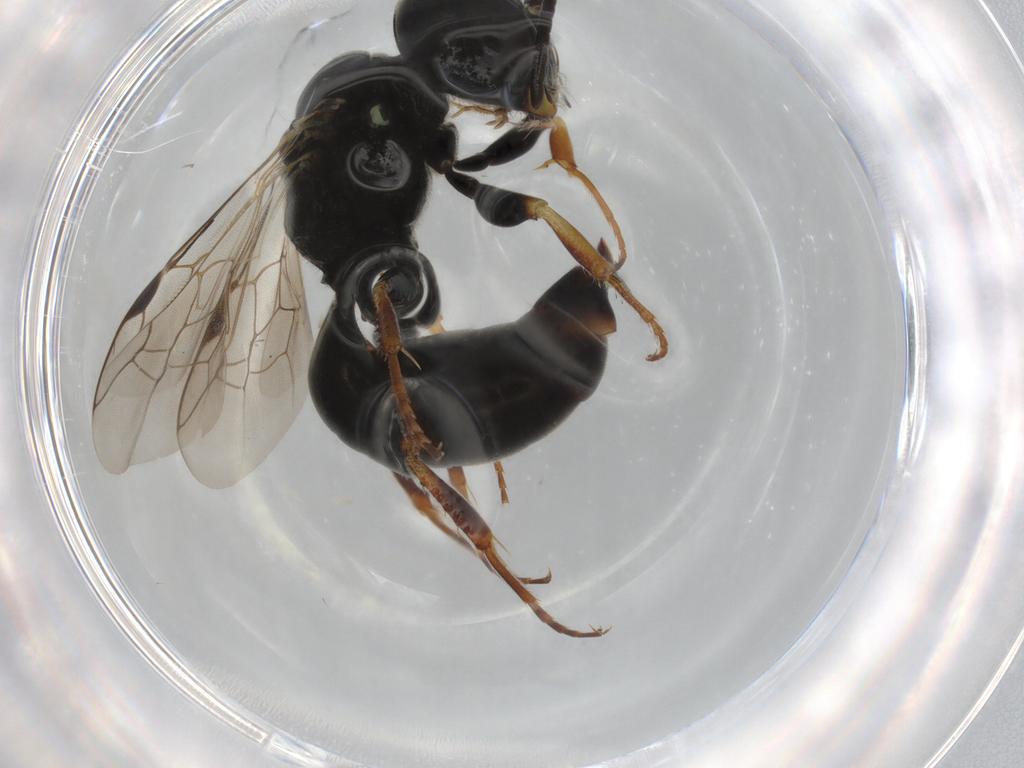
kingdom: Animalia
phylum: Arthropoda
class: Insecta
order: Hymenoptera
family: Crabronidae
